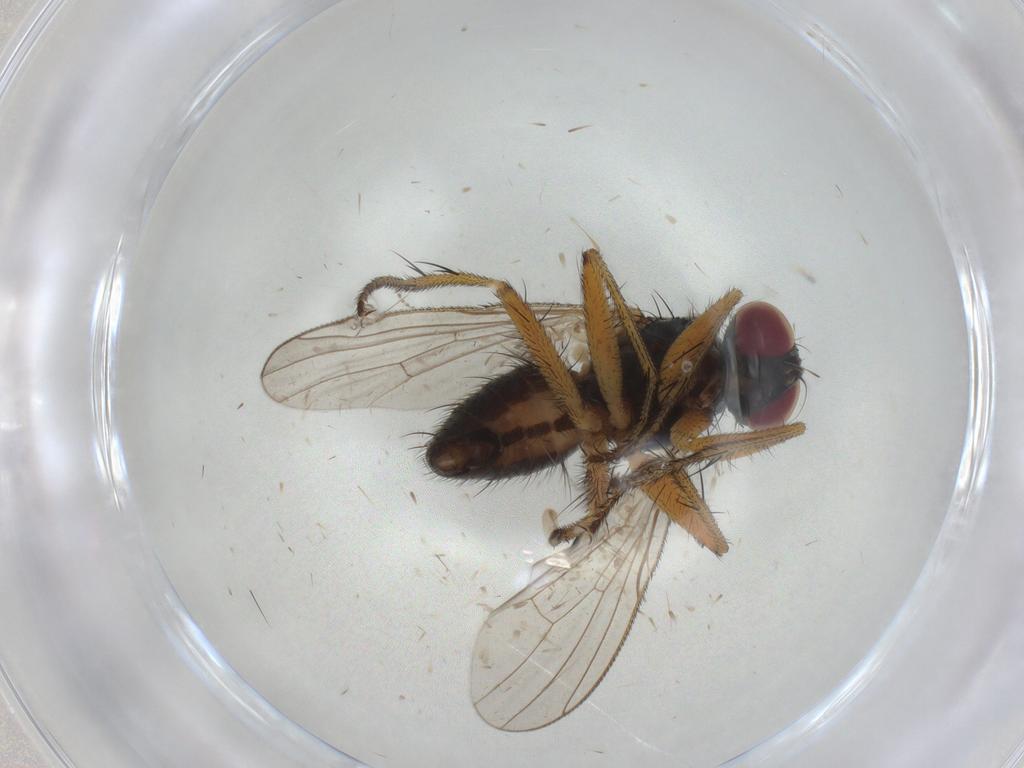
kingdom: Animalia
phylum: Arthropoda
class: Insecta
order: Diptera
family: Muscidae
